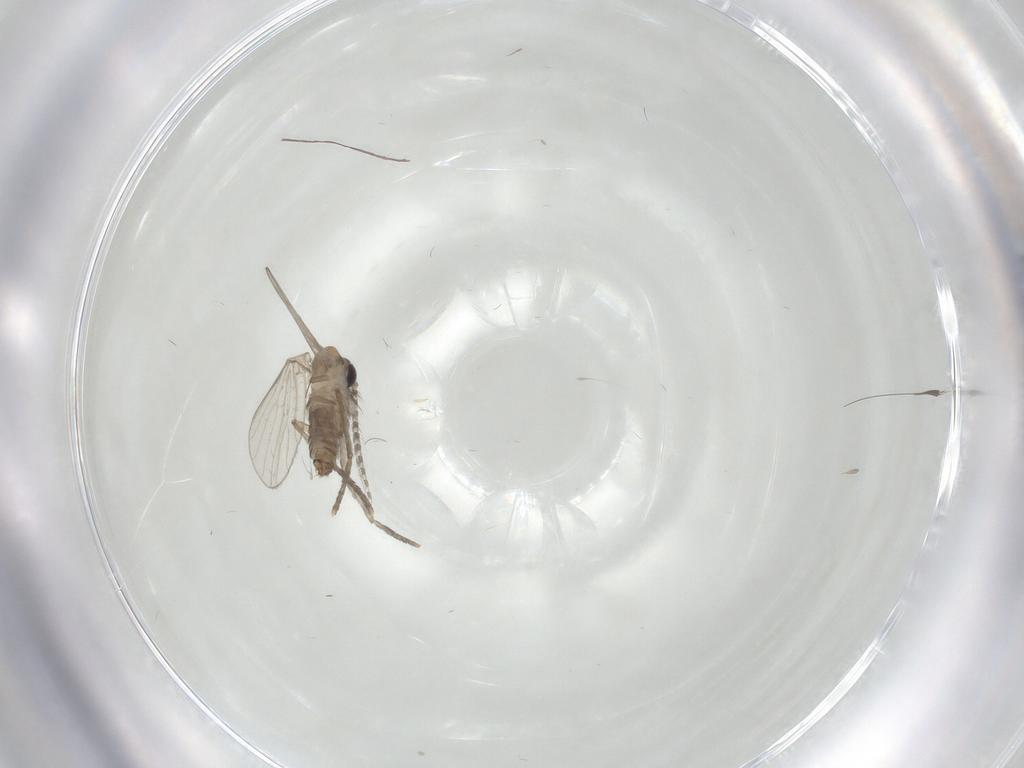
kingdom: Animalia
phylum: Arthropoda
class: Insecta
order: Diptera
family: Psychodidae
